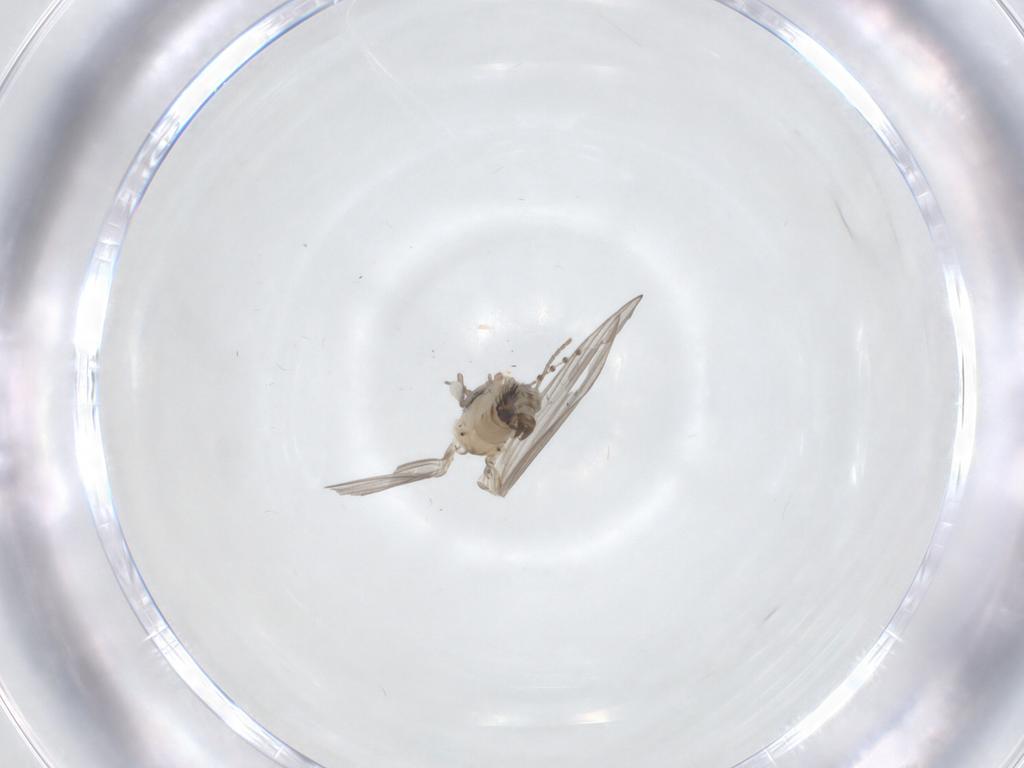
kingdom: Animalia
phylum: Arthropoda
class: Insecta
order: Diptera
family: Psychodidae
